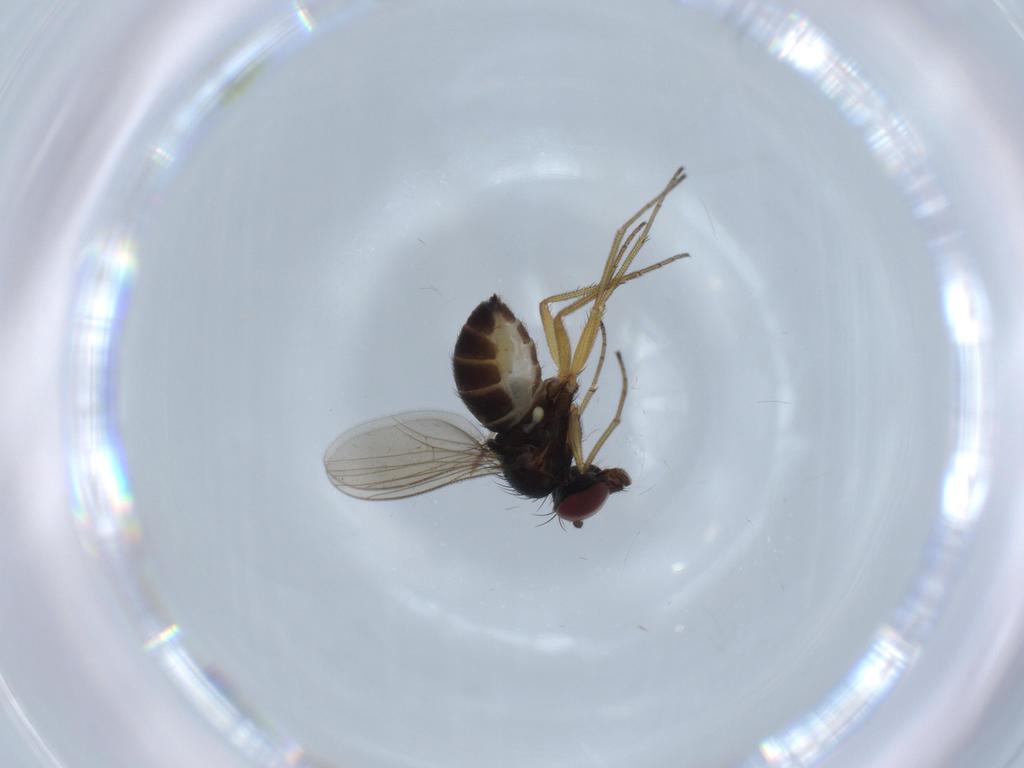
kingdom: Animalia
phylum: Arthropoda
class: Insecta
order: Diptera
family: Dolichopodidae
